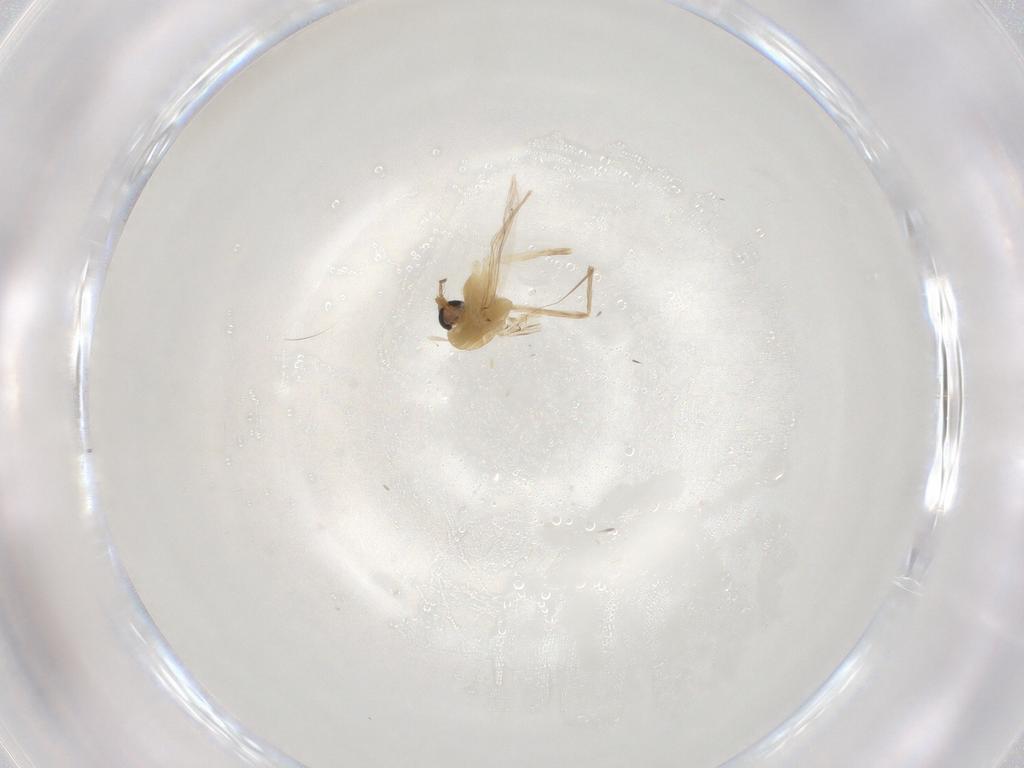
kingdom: Animalia
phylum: Arthropoda
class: Insecta
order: Diptera
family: Chironomidae
